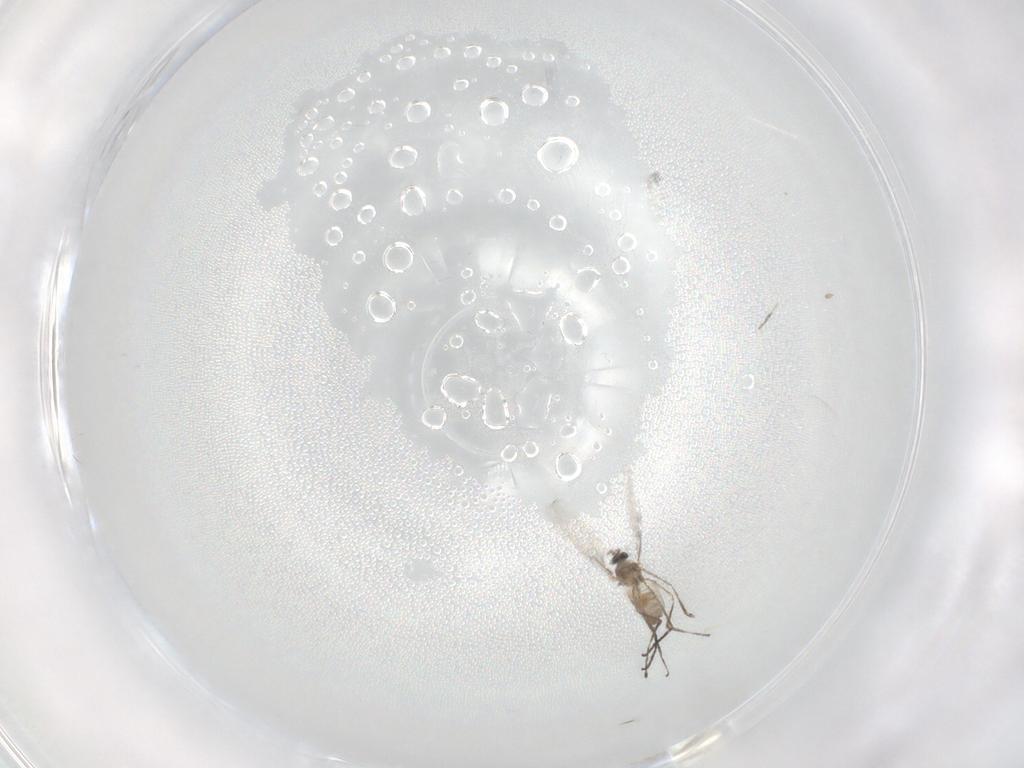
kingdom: Animalia
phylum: Arthropoda
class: Insecta
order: Diptera
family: Cecidomyiidae
